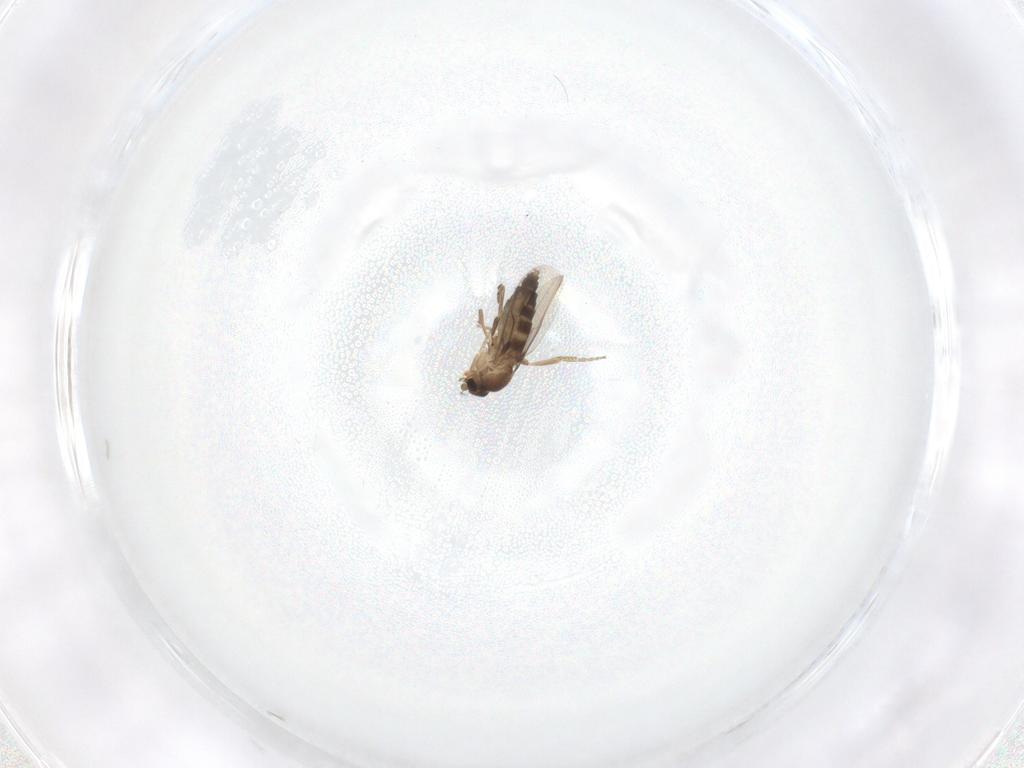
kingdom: Animalia
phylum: Arthropoda
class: Insecta
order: Diptera
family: Phoridae
